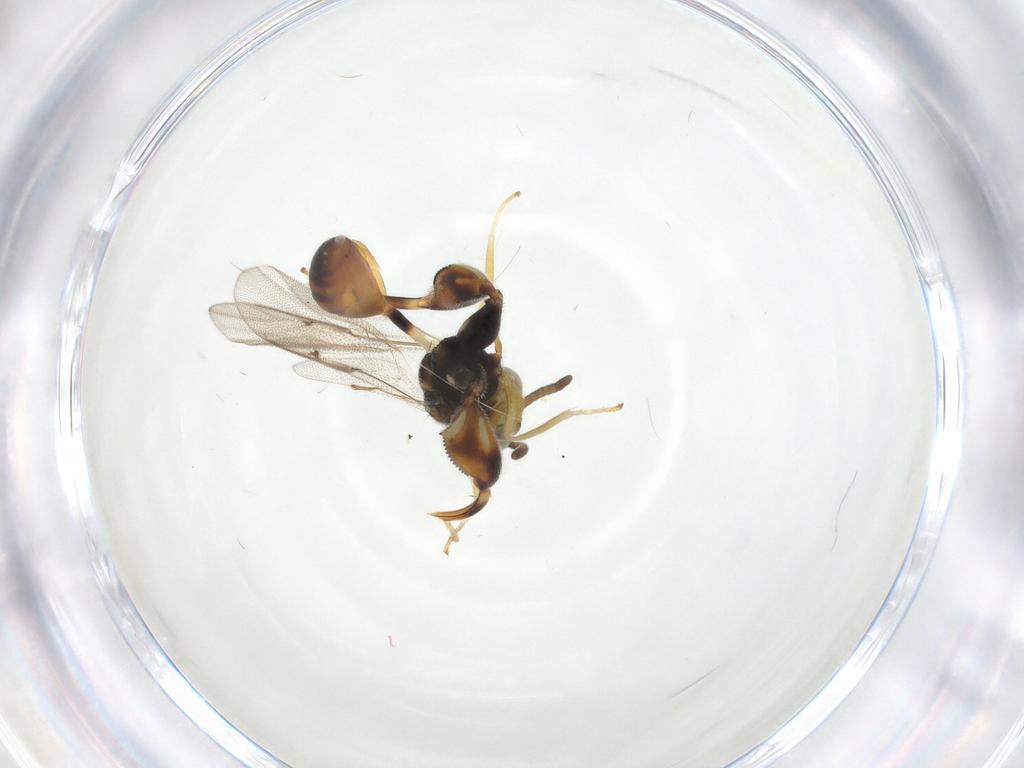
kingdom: Animalia
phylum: Arthropoda
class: Insecta
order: Hymenoptera
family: Chalcididae
